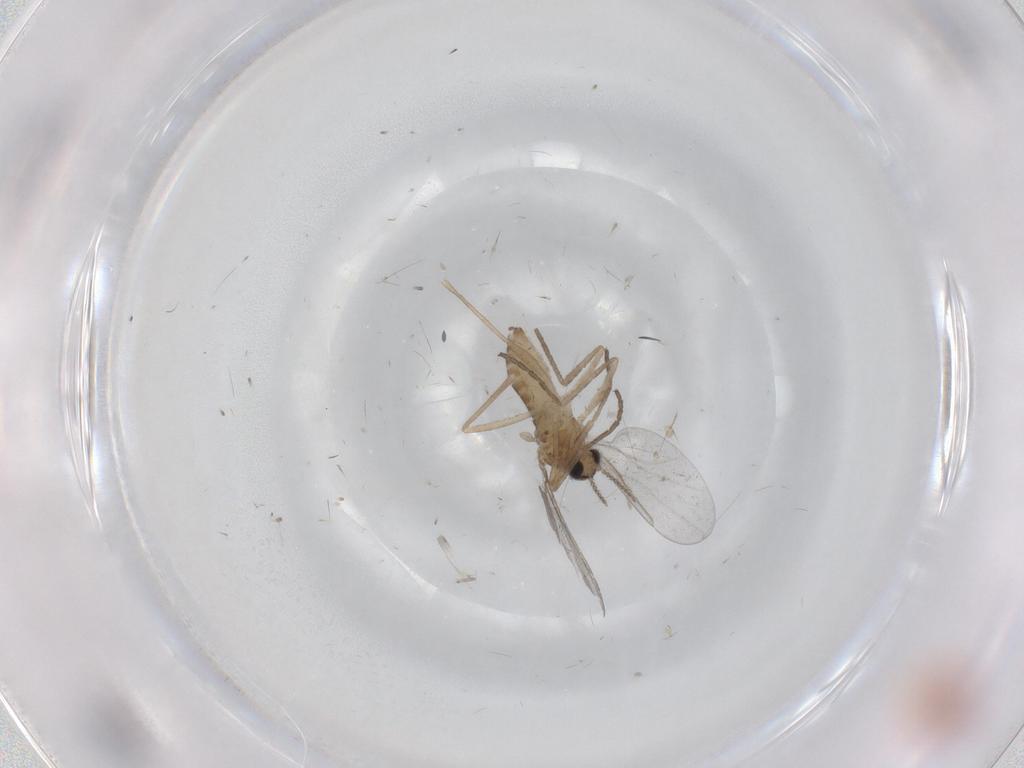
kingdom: Animalia
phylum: Arthropoda
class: Insecta
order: Diptera
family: Cecidomyiidae
